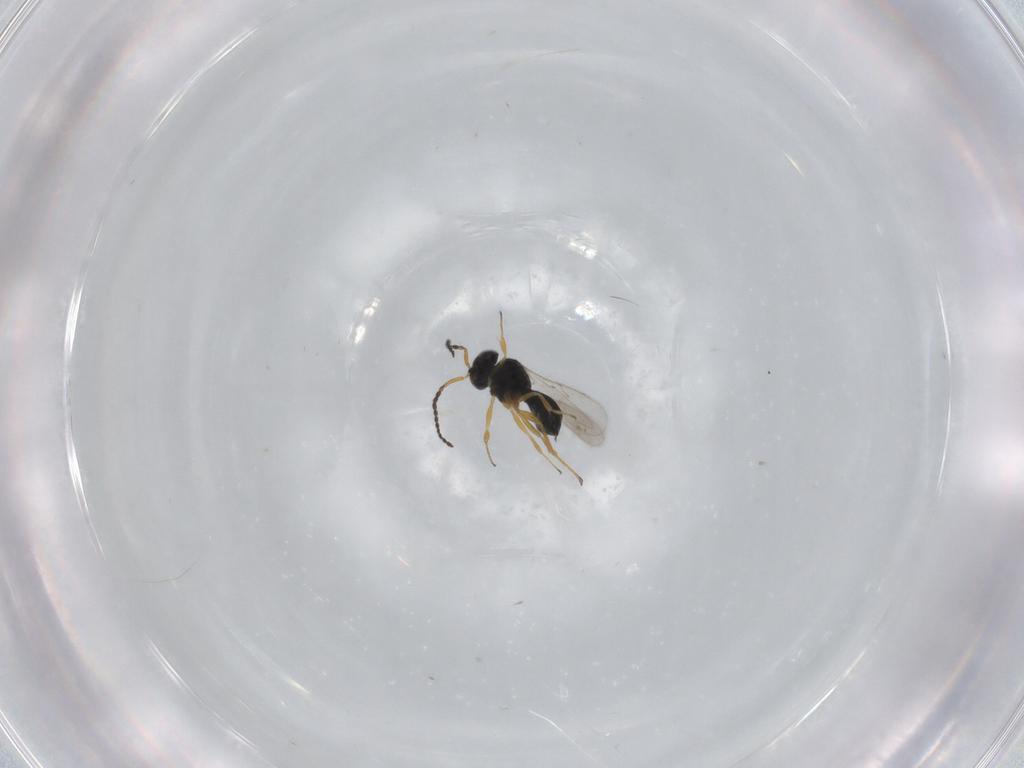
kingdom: Animalia
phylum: Arthropoda
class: Insecta
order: Hymenoptera
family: Scelionidae
